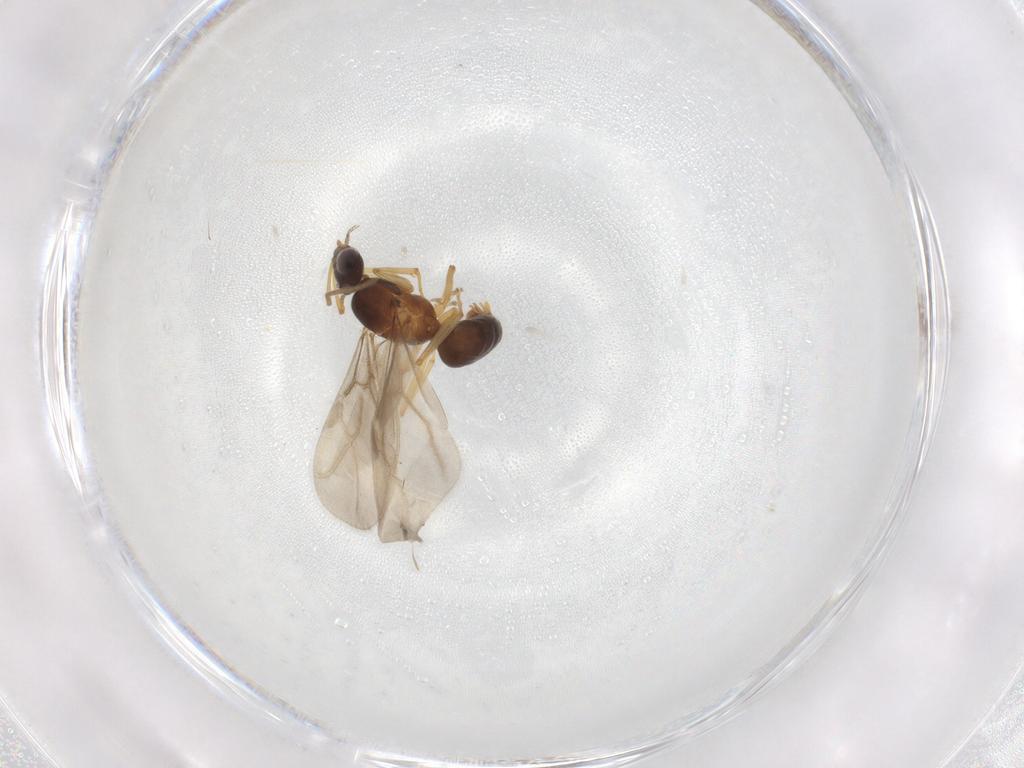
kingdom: Animalia
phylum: Arthropoda
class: Insecta
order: Hymenoptera
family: Formicidae
